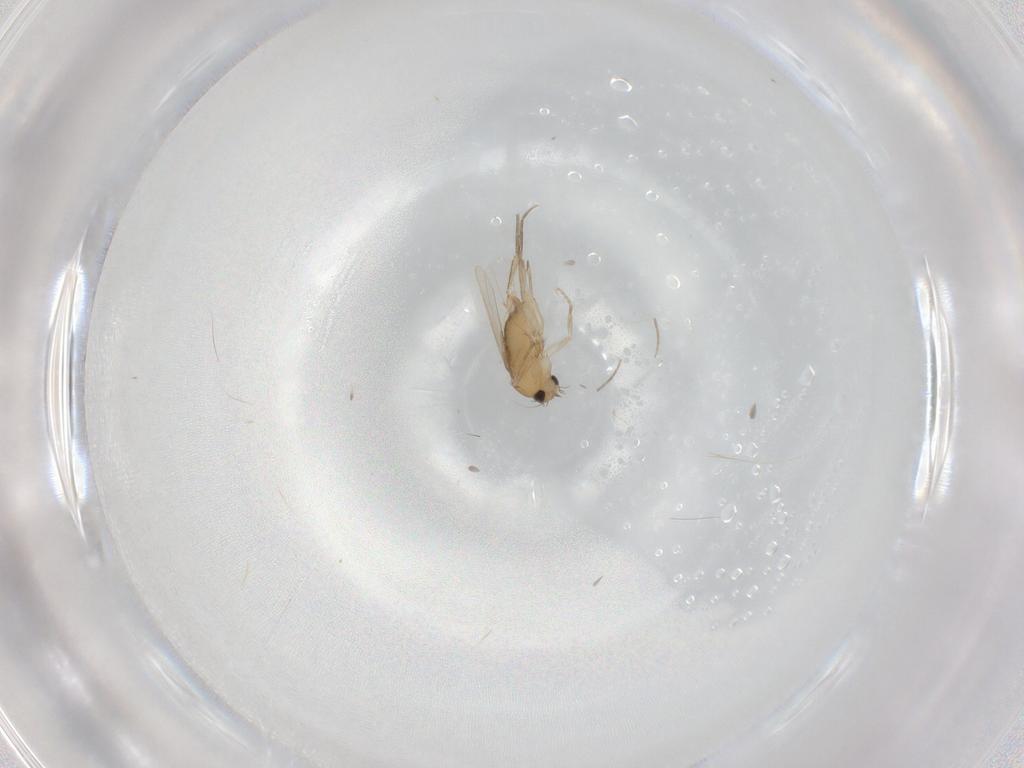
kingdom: Animalia
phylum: Arthropoda
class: Insecta
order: Diptera
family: Phoridae
